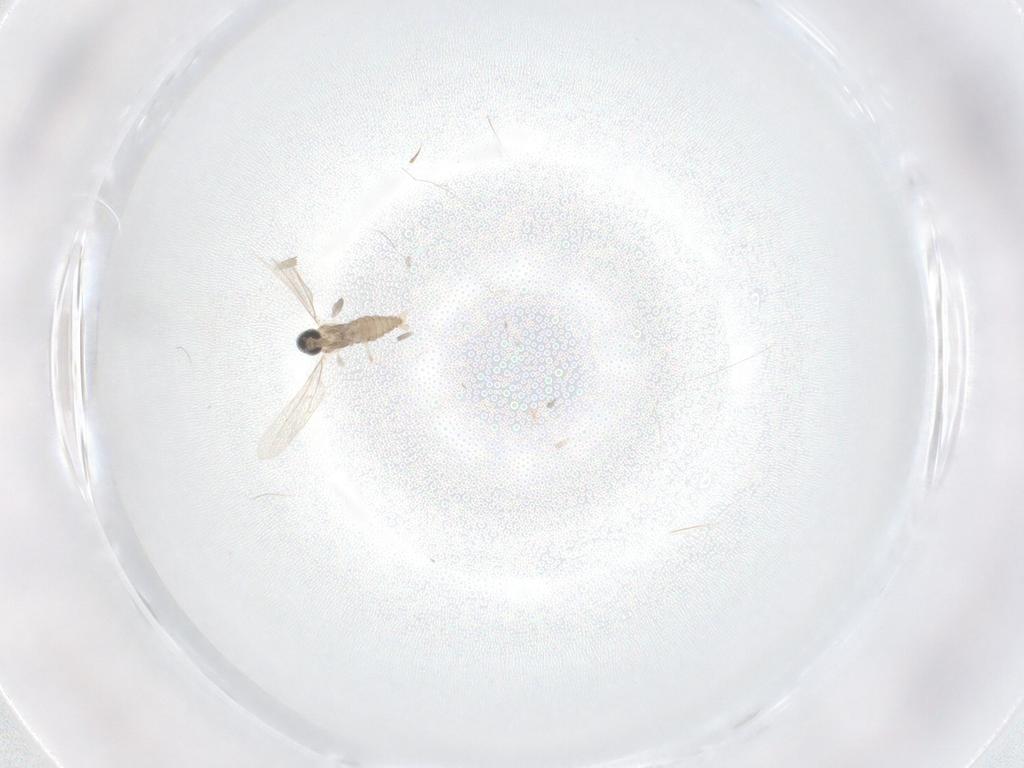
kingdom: Animalia
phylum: Arthropoda
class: Insecta
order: Diptera
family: Cecidomyiidae
